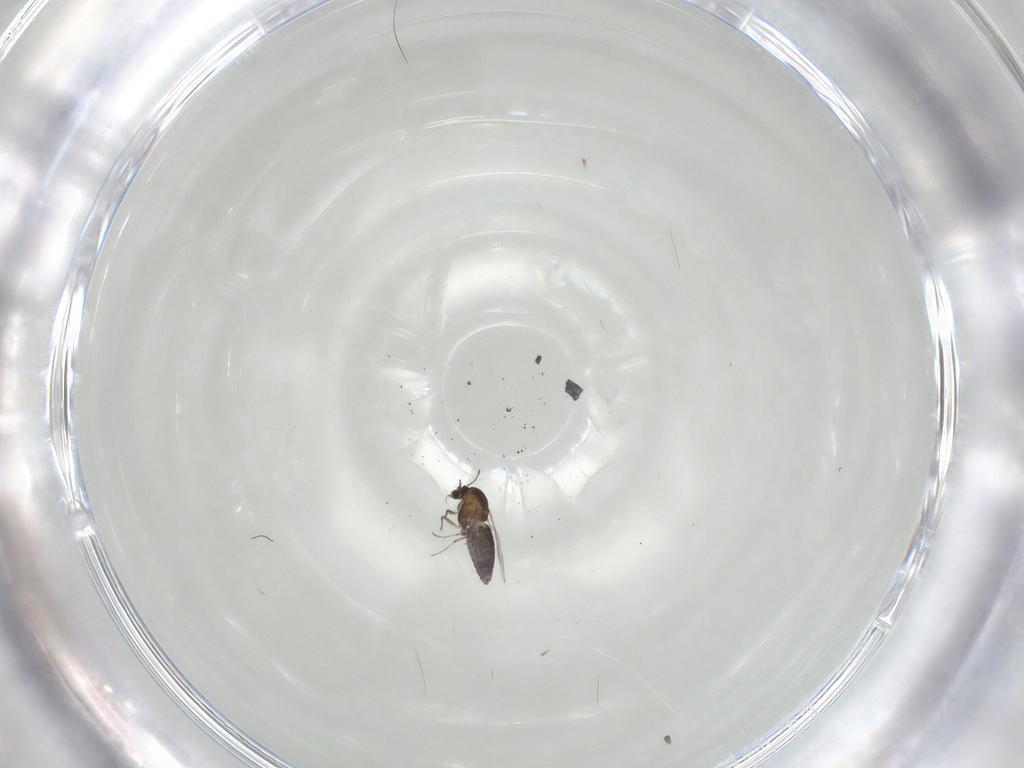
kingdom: Animalia
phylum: Arthropoda
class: Insecta
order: Diptera
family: Chironomidae
